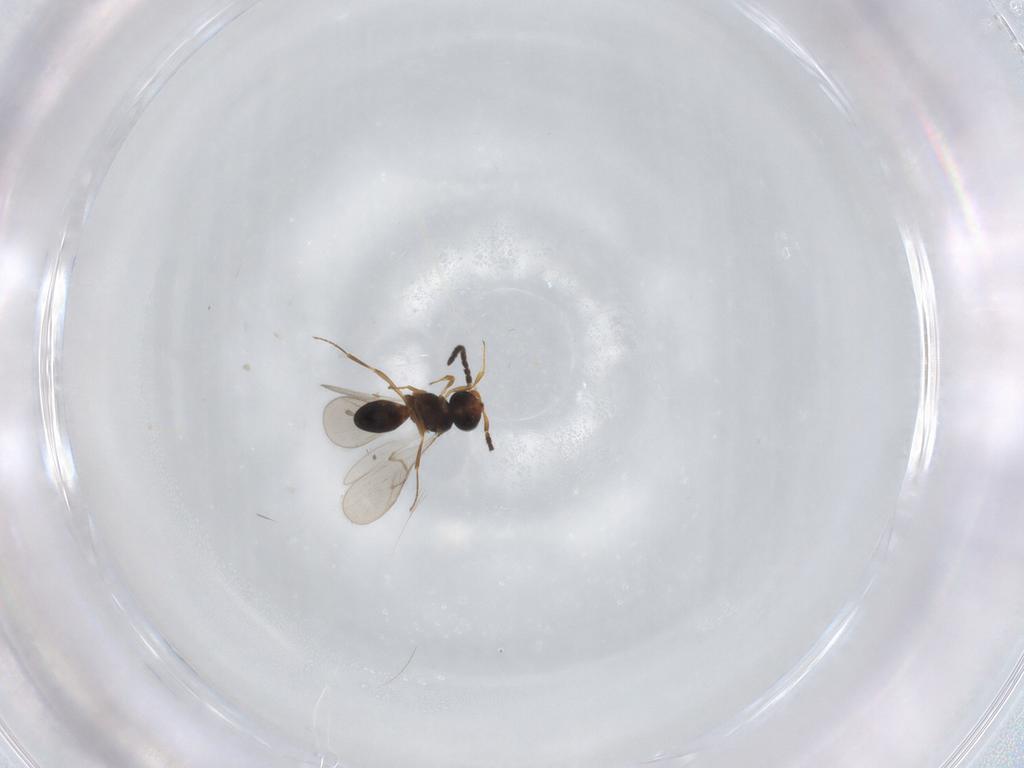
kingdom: Animalia
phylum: Arthropoda
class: Insecta
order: Hymenoptera
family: Scelionidae
